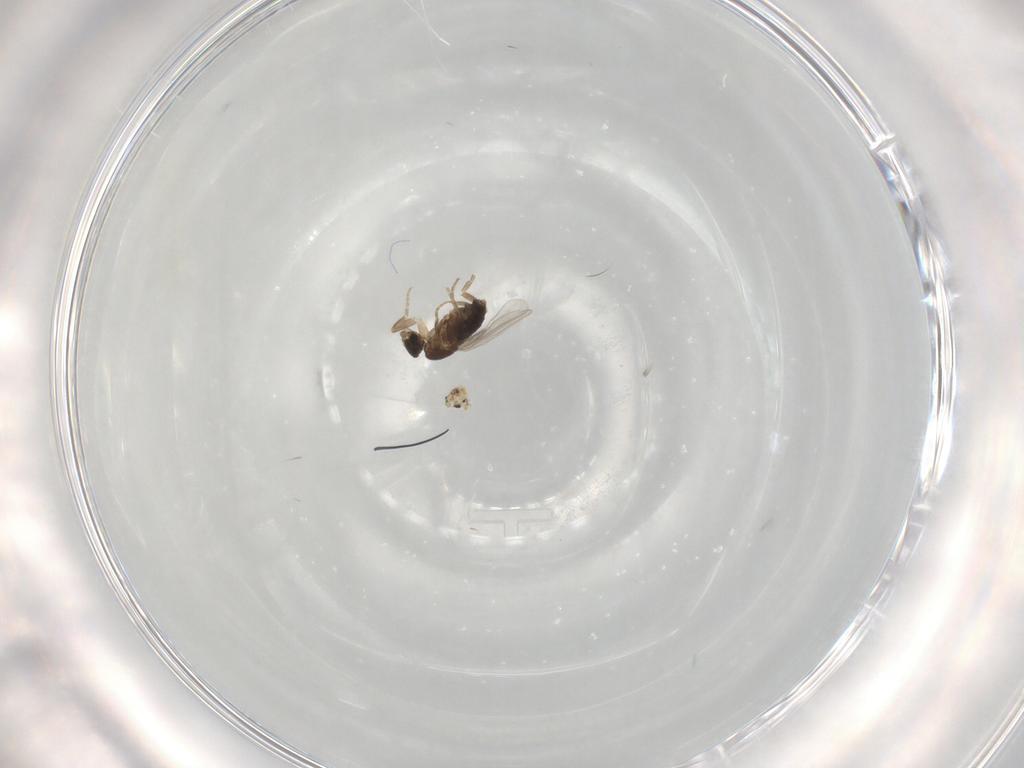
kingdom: Animalia
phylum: Arthropoda
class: Insecta
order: Diptera
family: Phoridae
